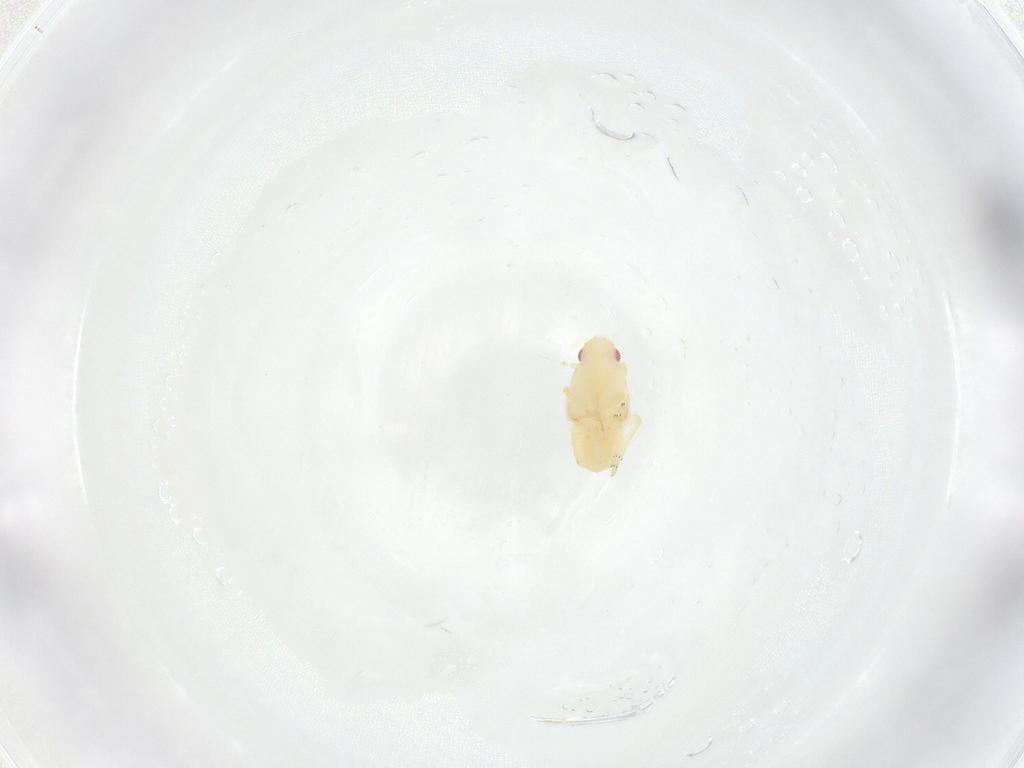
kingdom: Animalia
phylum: Arthropoda
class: Insecta
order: Hemiptera
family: Flatidae
